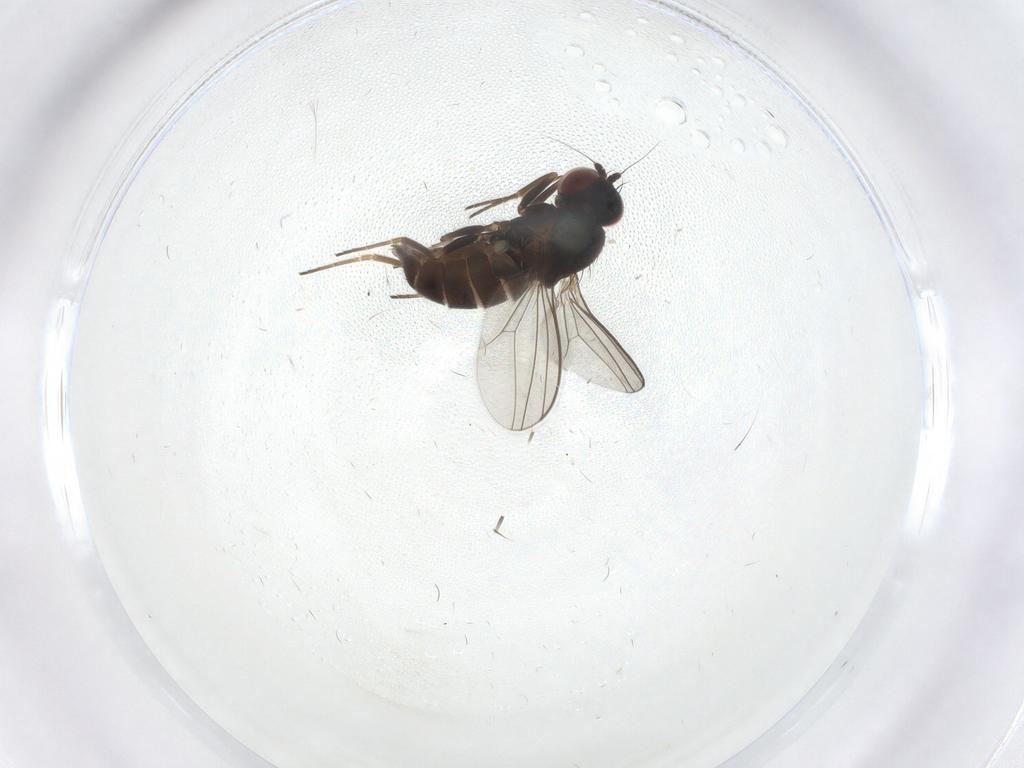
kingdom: Animalia
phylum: Arthropoda
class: Insecta
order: Diptera
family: Dolichopodidae
